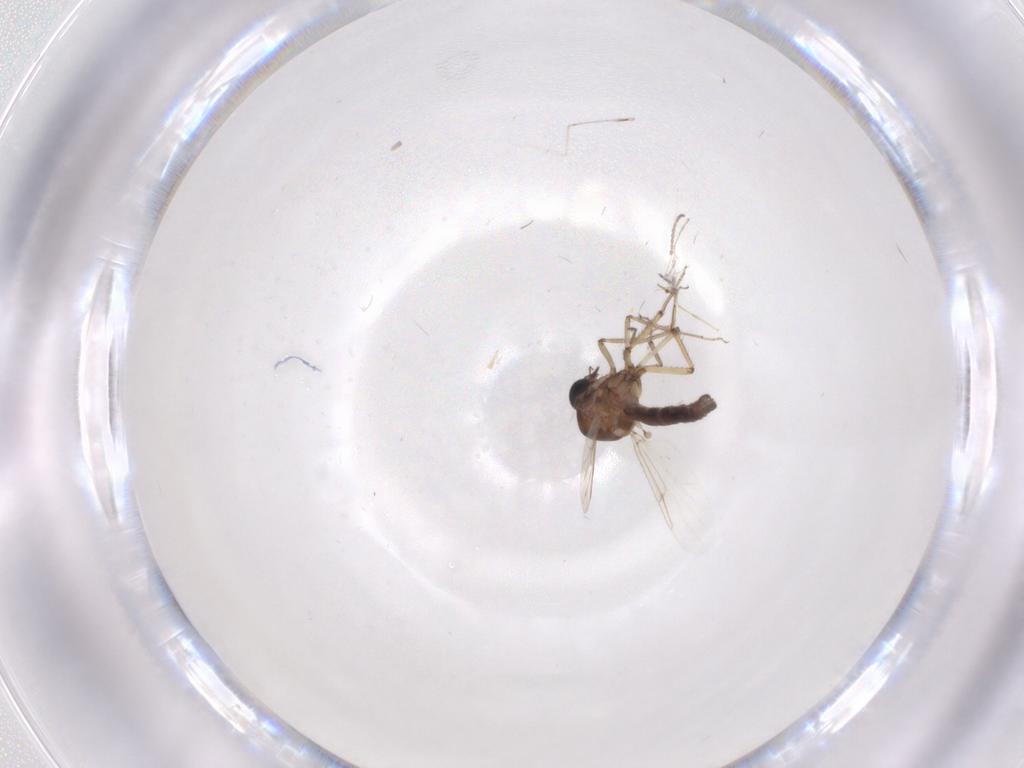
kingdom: Animalia
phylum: Arthropoda
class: Insecta
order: Diptera
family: Ceratopogonidae
